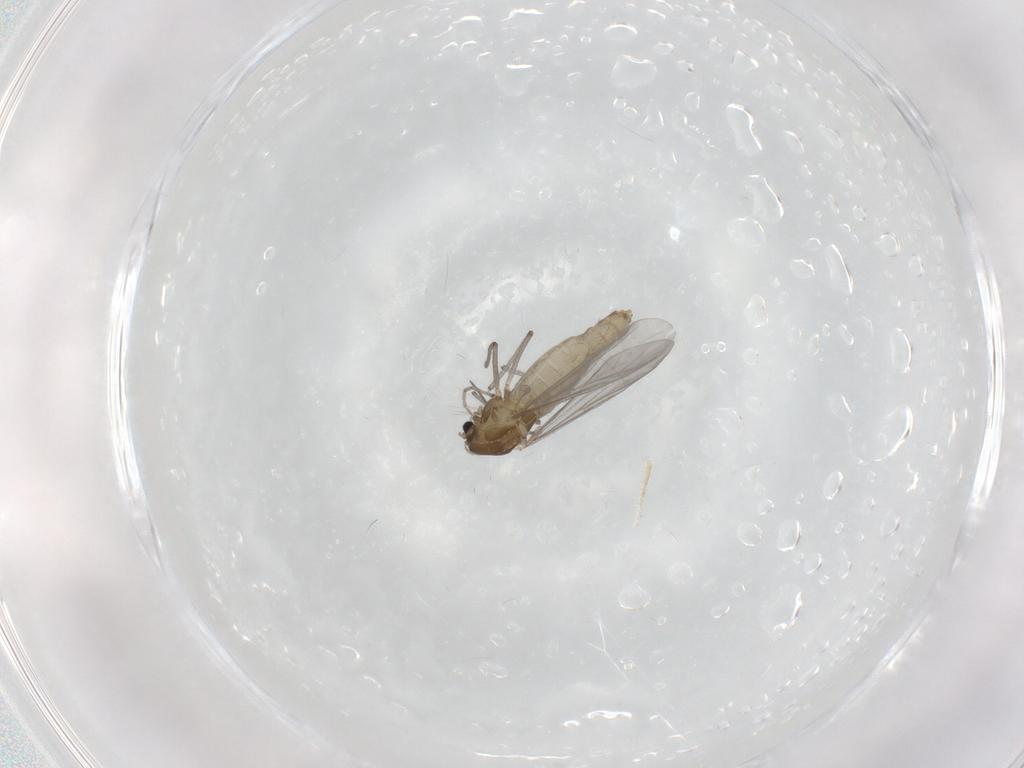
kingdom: Animalia
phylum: Arthropoda
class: Insecta
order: Diptera
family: Chironomidae
